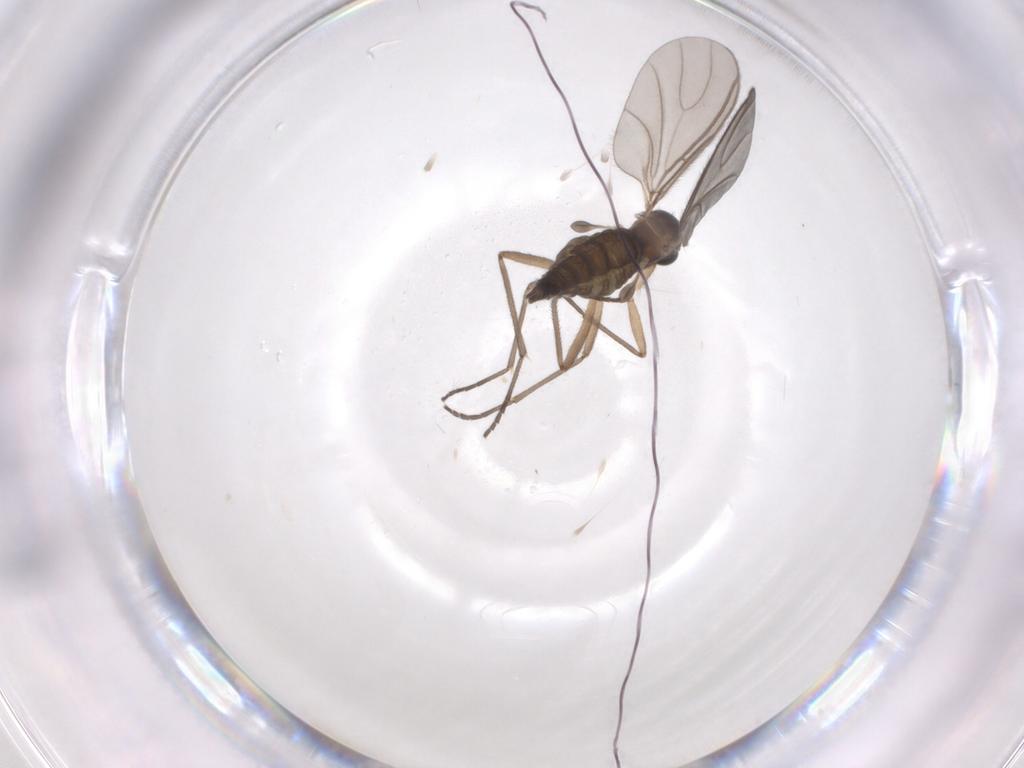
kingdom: Animalia
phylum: Arthropoda
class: Insecta
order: Diptera
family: Sciaridae
